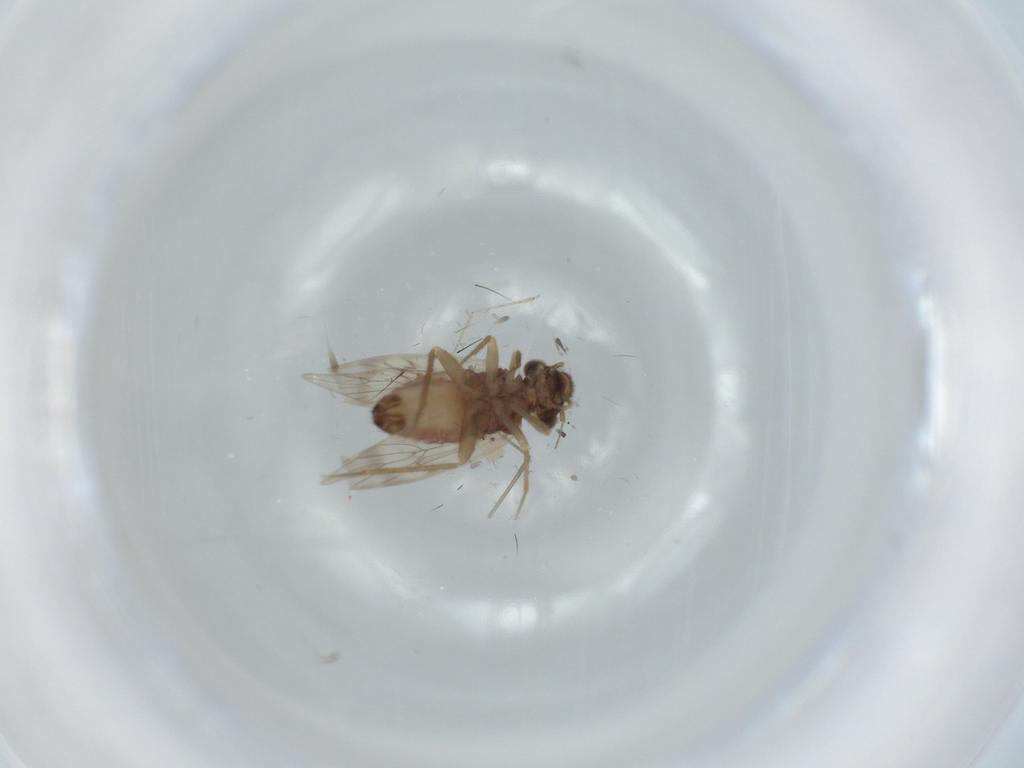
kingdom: Animalia
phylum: Arthropoda
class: Insecta
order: Psocodea
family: Lepidopsocidae
